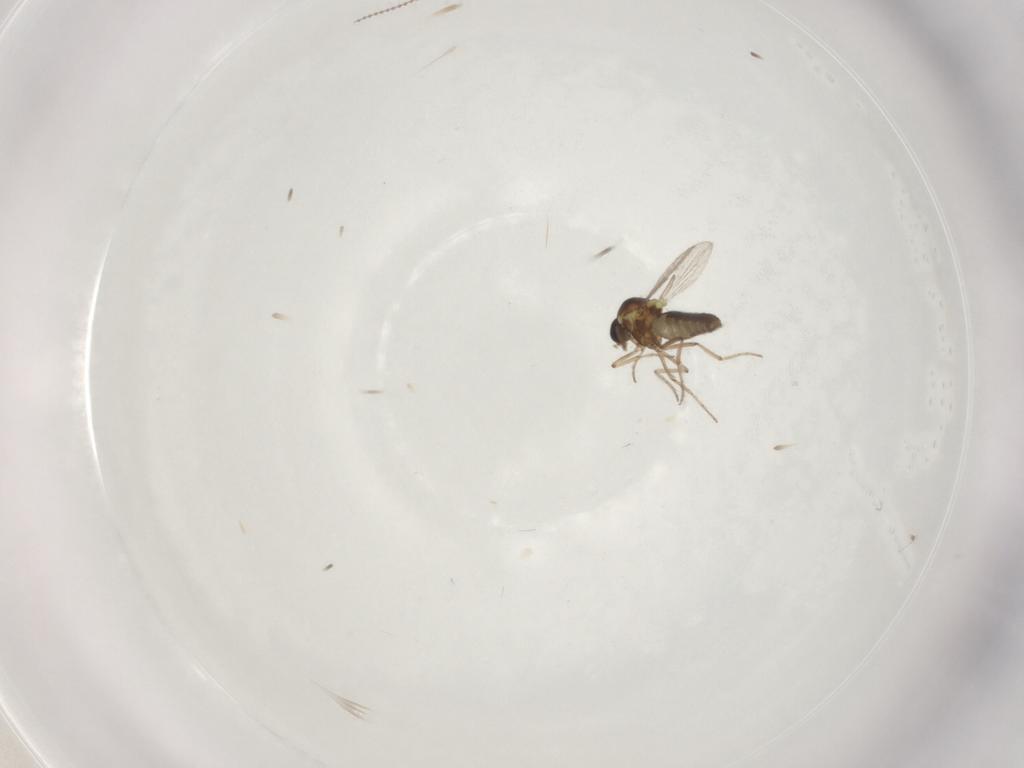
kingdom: Animalia
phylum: Arthropoda
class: Insecta
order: Diptera
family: Ceratopogonidae
